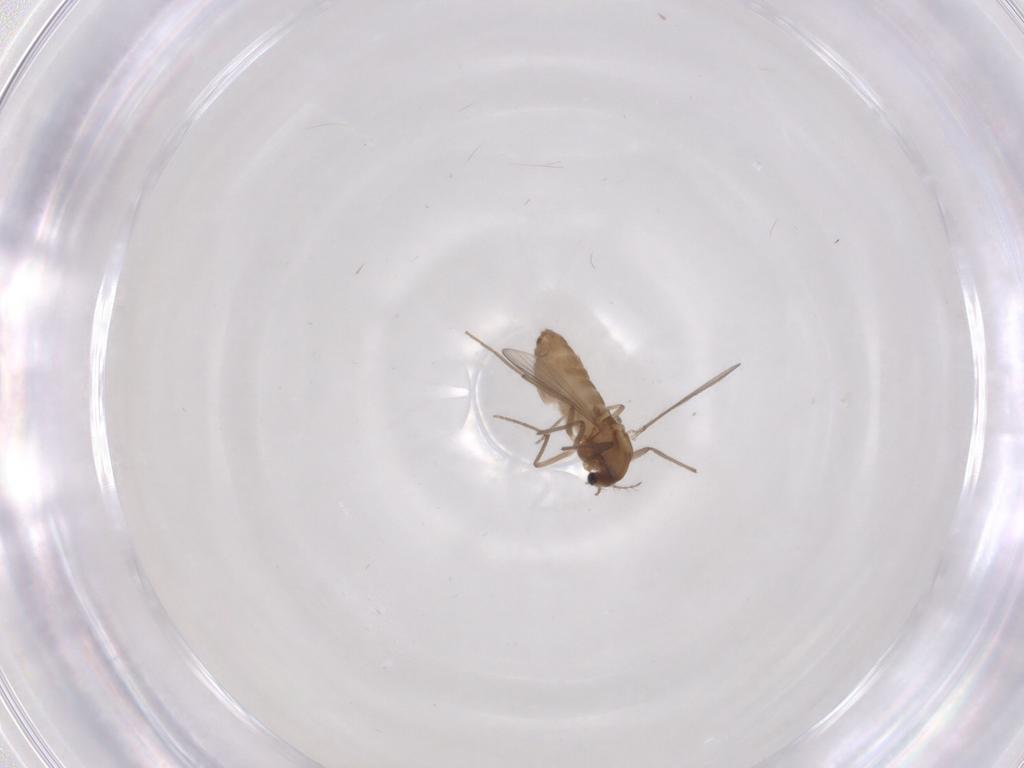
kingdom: Animalia
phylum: Arthropoda
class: Insecta
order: Diptera
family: Chironomidae
